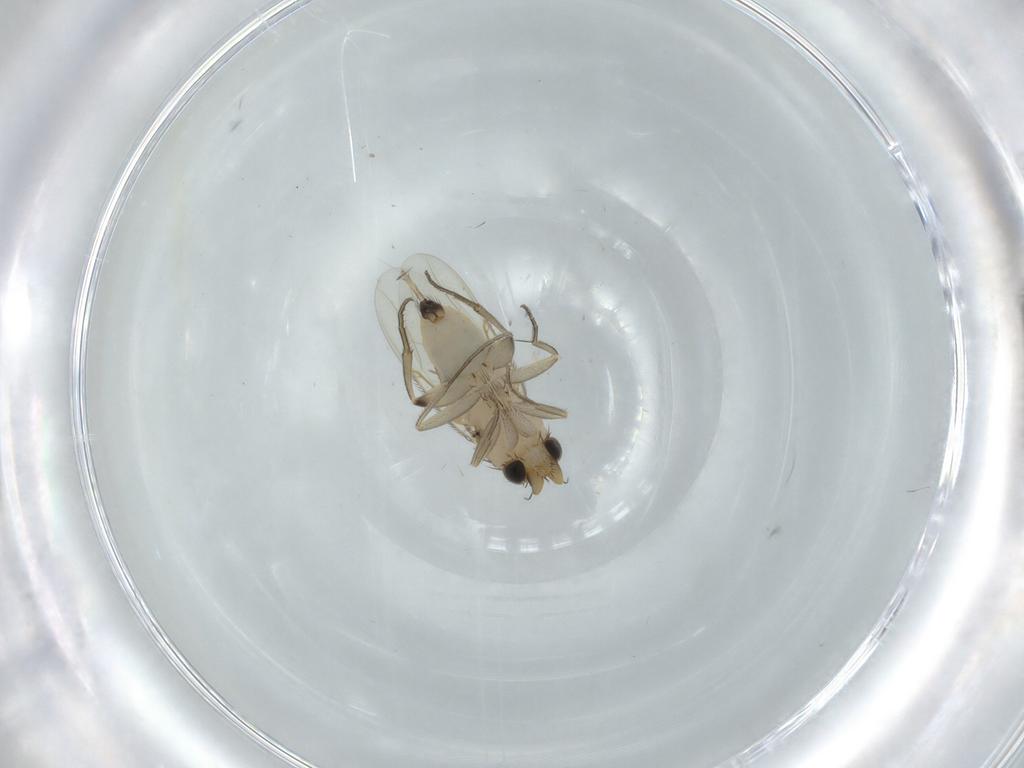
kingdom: Animalia
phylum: Arthropoda
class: Insecta
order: Diptera
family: Phoridae
